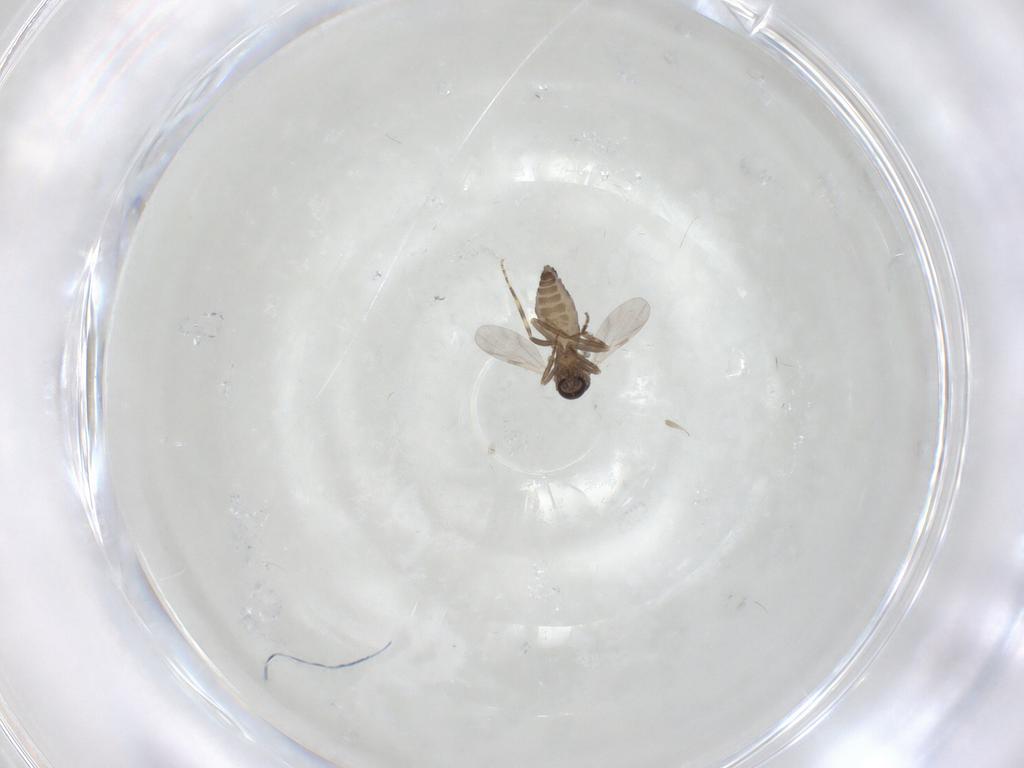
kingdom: Animalia
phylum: Arthropoda
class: Insecta
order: Diptera
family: Ceratopogonidae
